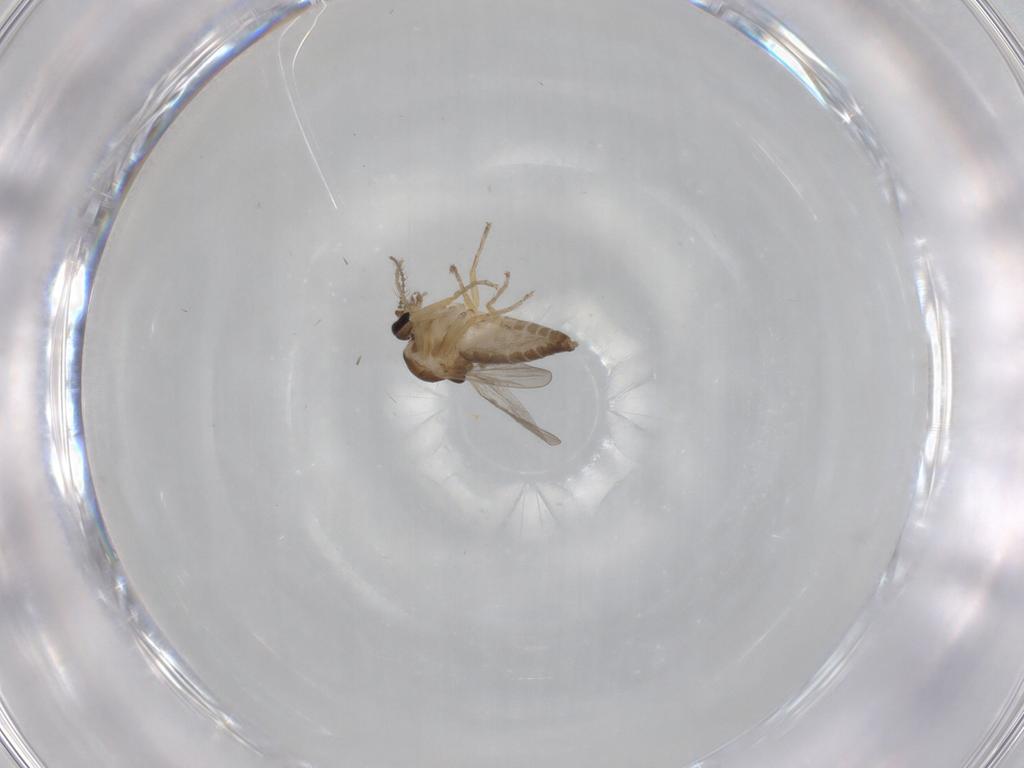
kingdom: Animalia
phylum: Arthropoda
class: Insecta
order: Diptera
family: Ceratopogonidae
